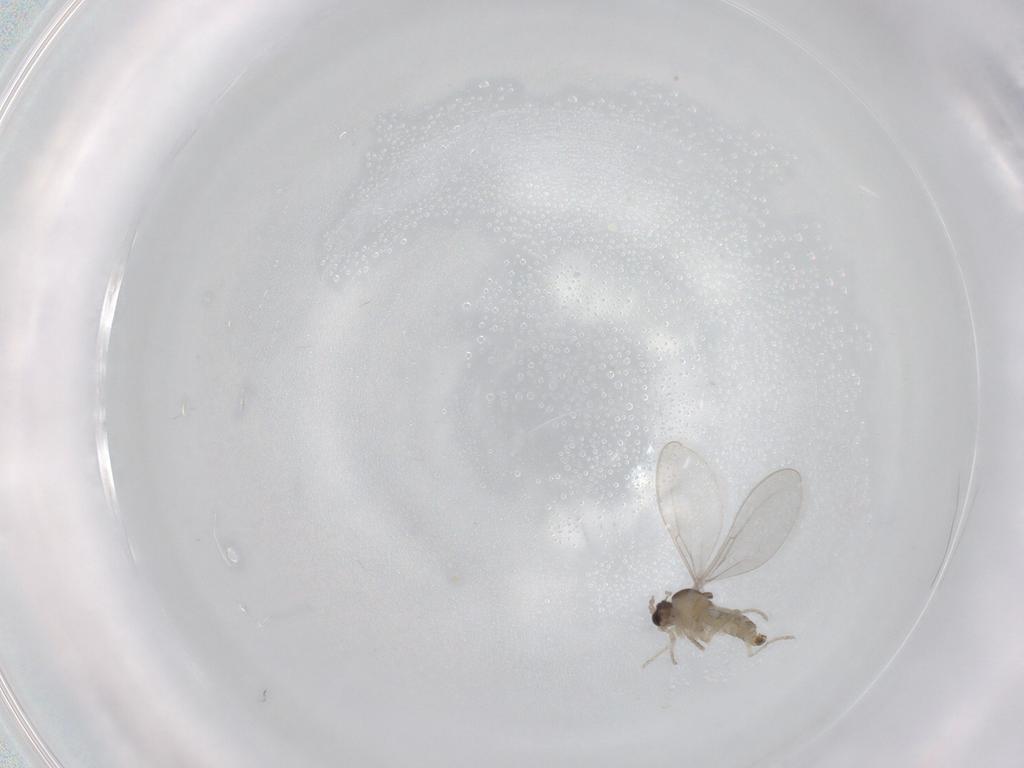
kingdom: Animalia
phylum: Arthropoda
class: Insecta
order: Diptera
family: Cecidomyiidae
